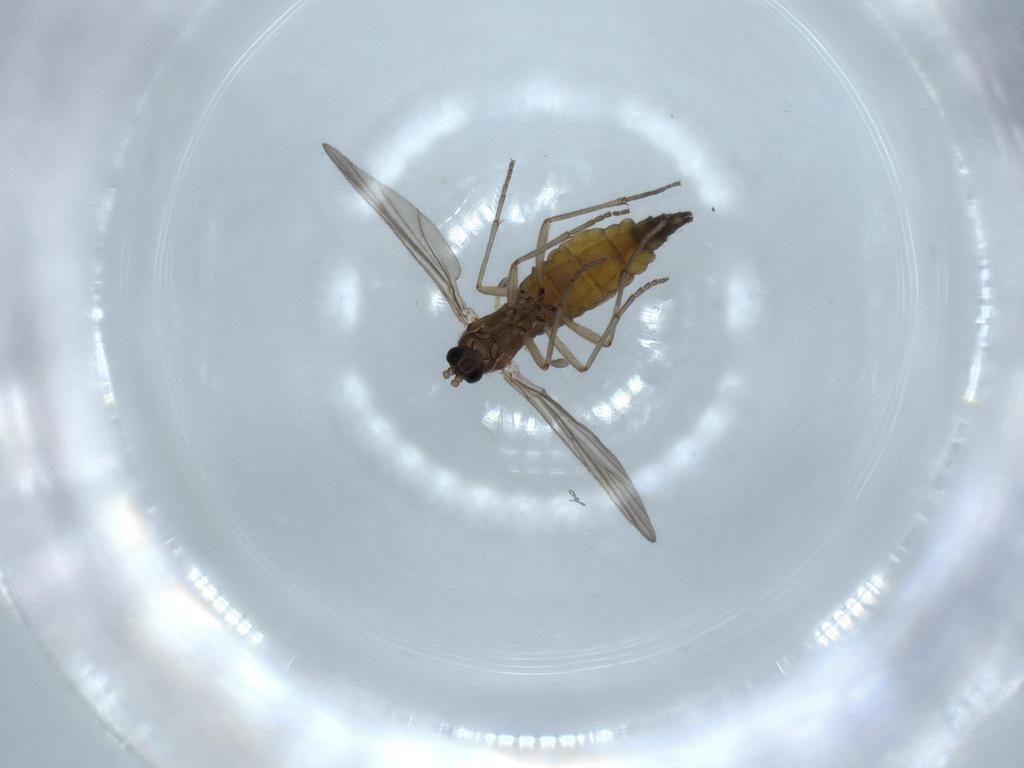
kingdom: Animalia
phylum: Arthropoda
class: Insecta
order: Diptera
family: Sciaridae
